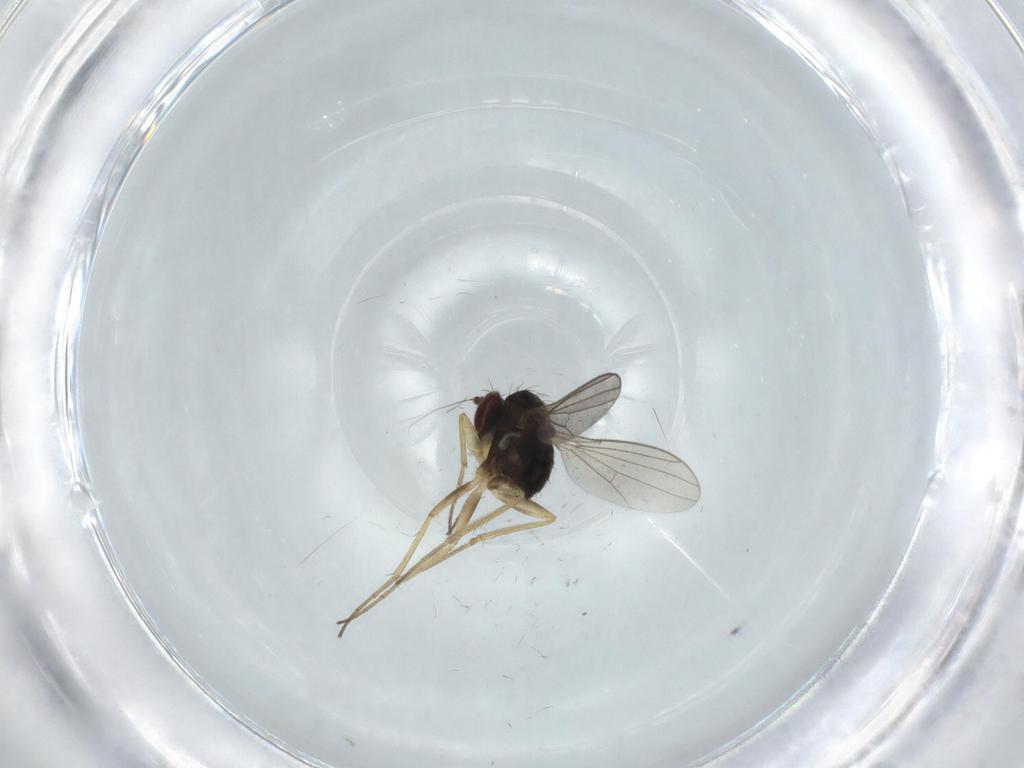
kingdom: Animalia
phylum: Arthropoda
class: Insecta
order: Diptera
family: Dolichopodidae
